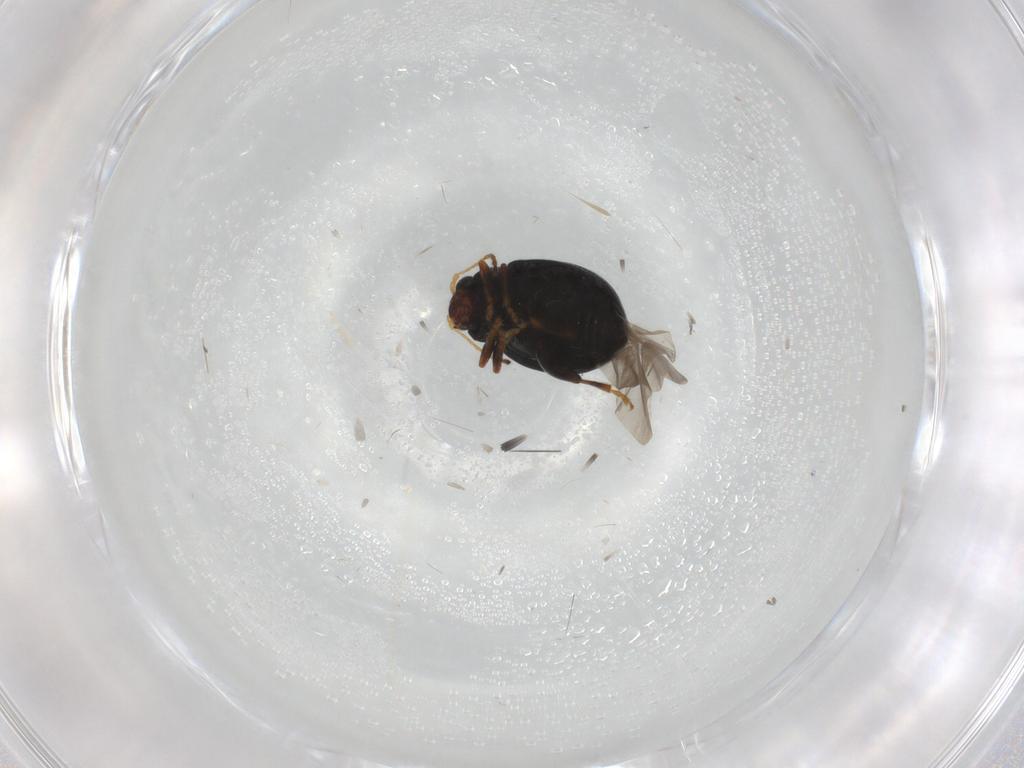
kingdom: Animalia
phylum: Arthropoda
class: Insecta
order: Coleoptera
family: Chrysomelidae
